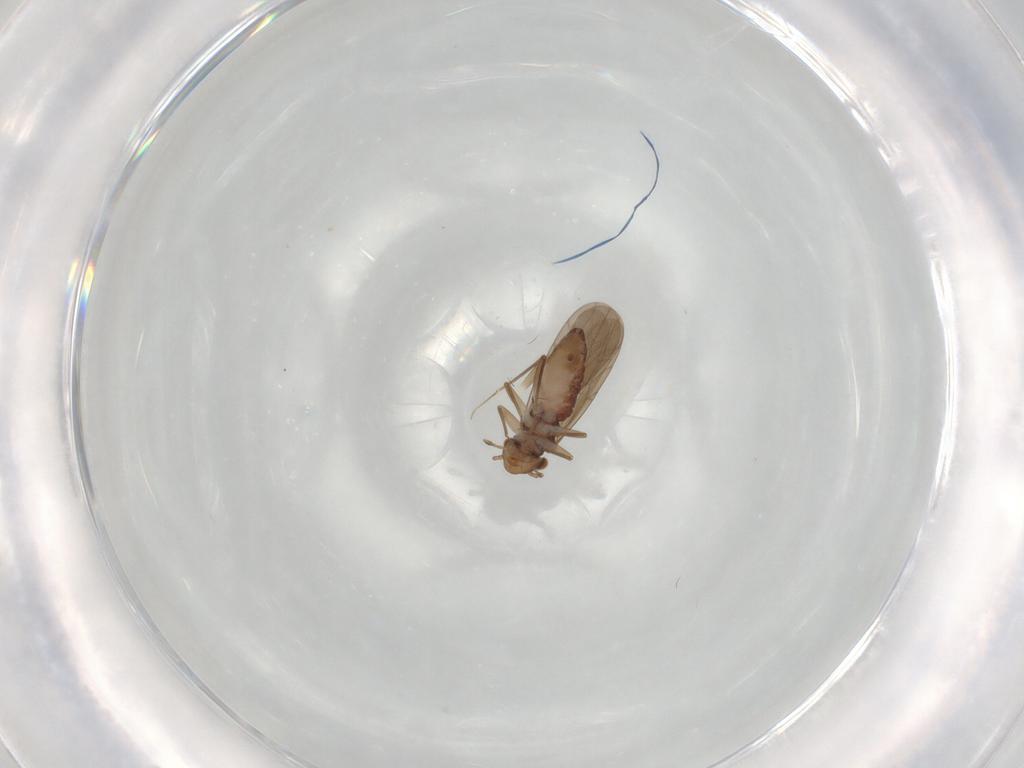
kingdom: Animalia
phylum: Arthropoda
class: Insecta
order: Psocodea
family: Lepidopsocidae
